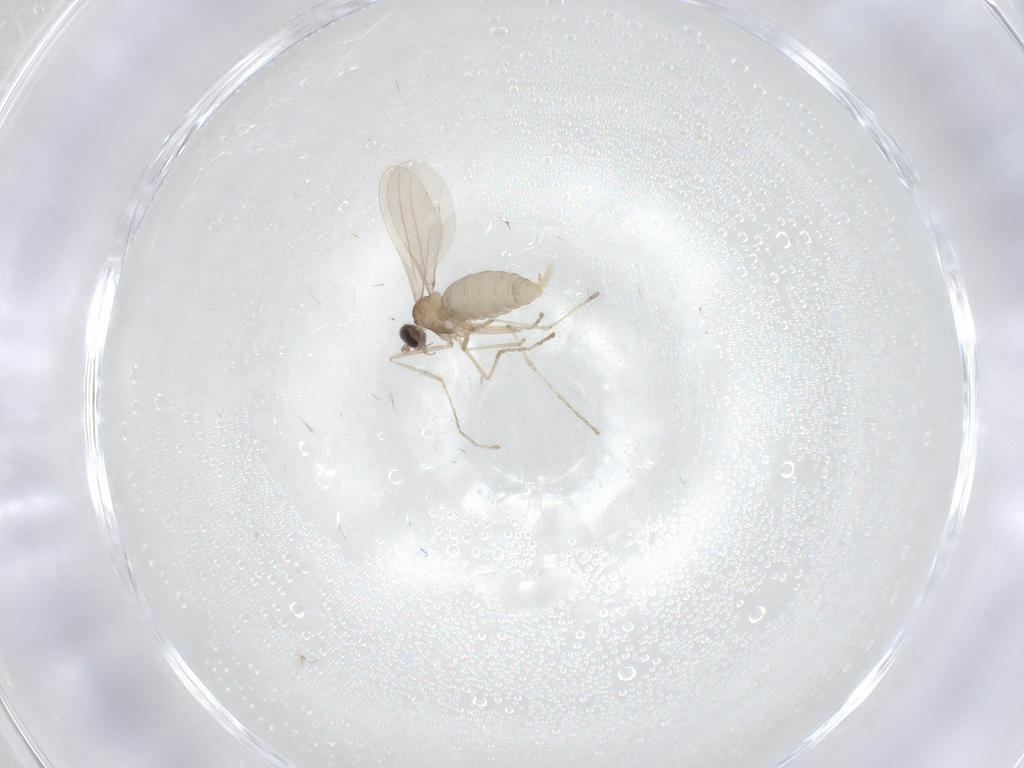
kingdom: Animalia
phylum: Arthropoda
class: Insecta
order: Diptera
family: Cecidomyiidae
